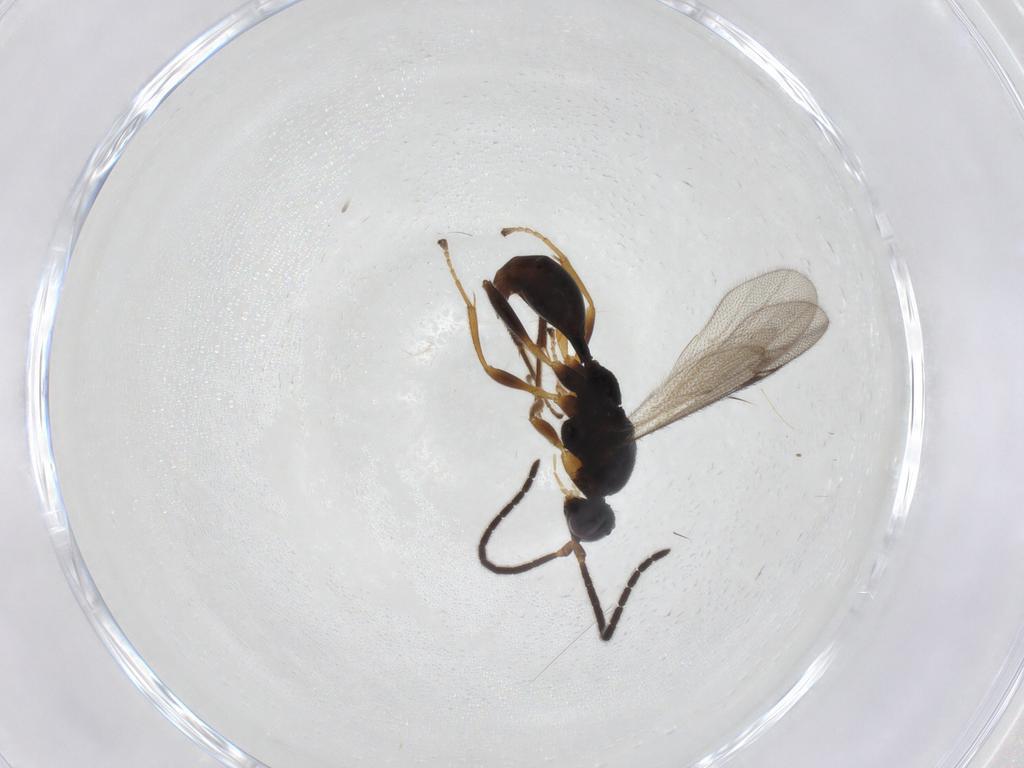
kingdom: Animalia
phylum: Arthropoda
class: Insecta
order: Hymenoptera
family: Proctotrupidae
